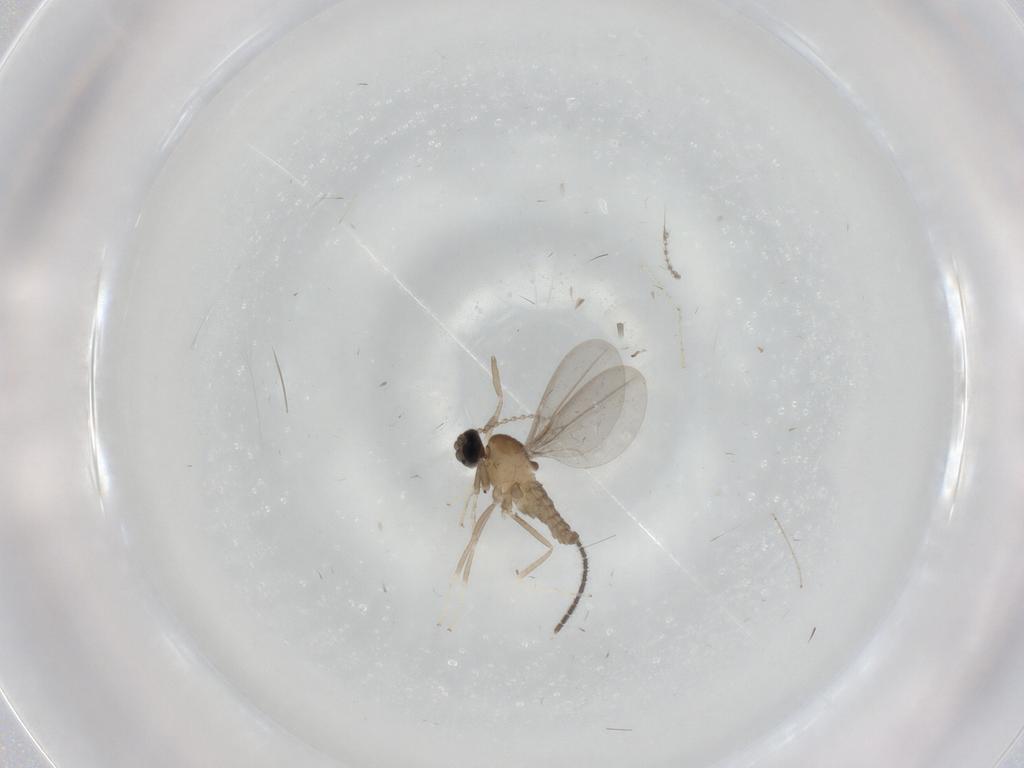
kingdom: Animalia
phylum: Arthropoda
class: Insecta
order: Diptera
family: Cecidomyiidae
